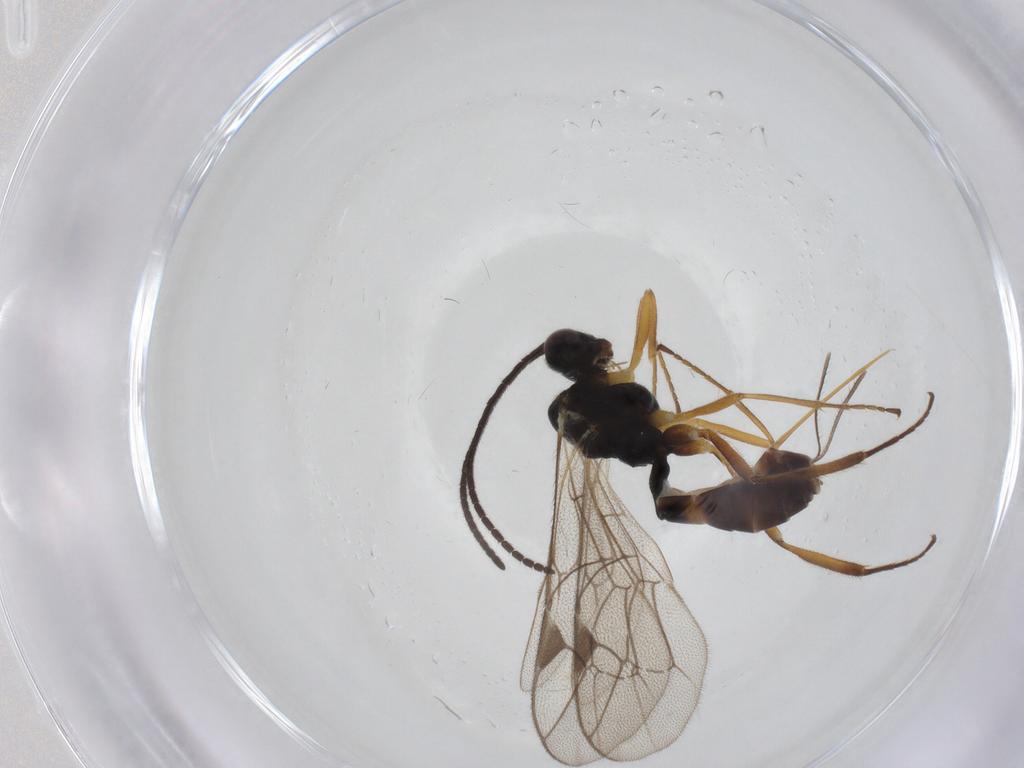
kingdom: Animalia
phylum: Arthropoda
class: Insecta
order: Hymenoptera
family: Ichneumonidae
